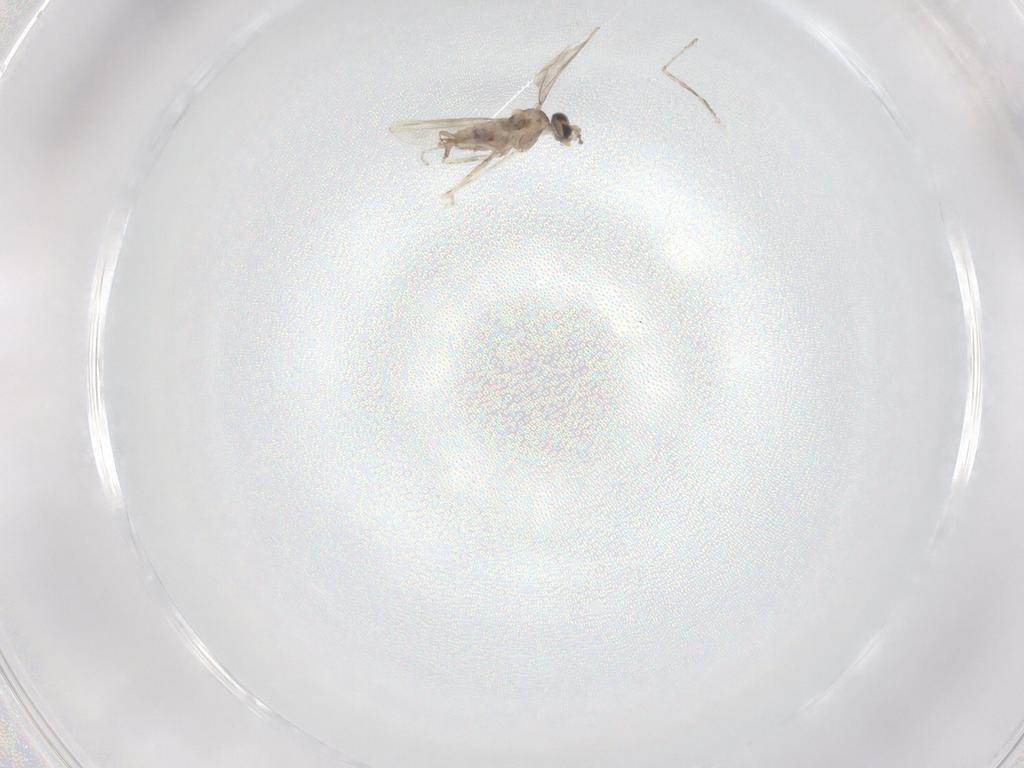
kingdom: Animalia
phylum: Arthropoda
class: Insecta
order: Diptera
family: Cecidomyiidae
